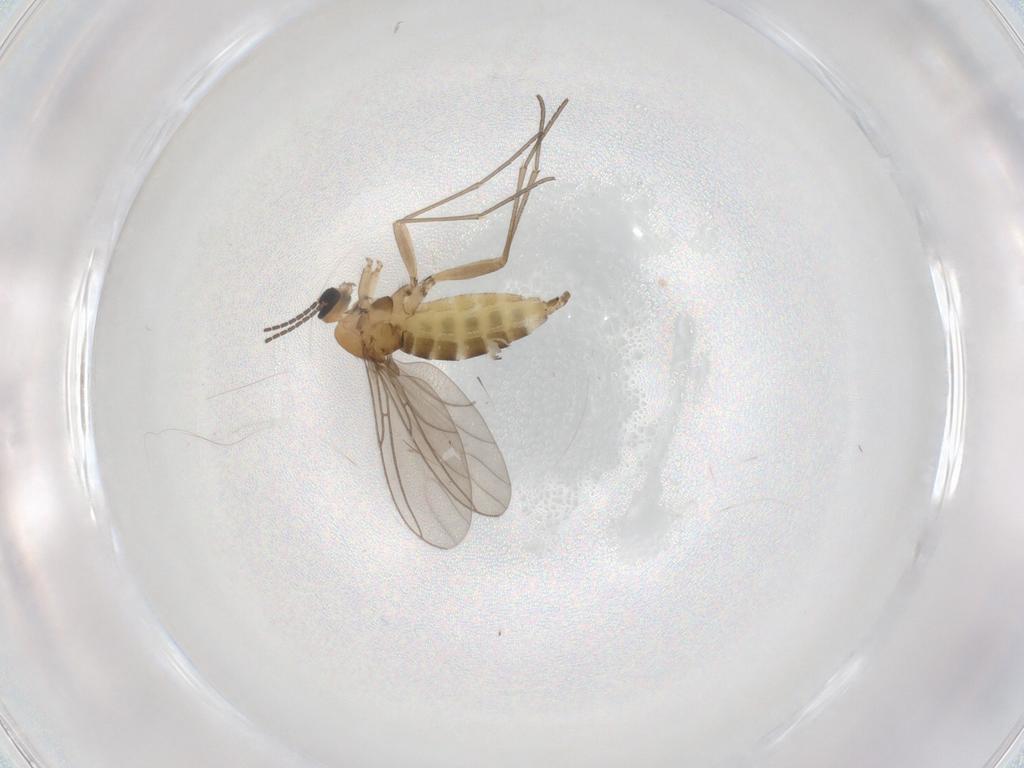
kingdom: Animalia
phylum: Arthropoda
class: Insecta
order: Diptera
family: Sciaridae
